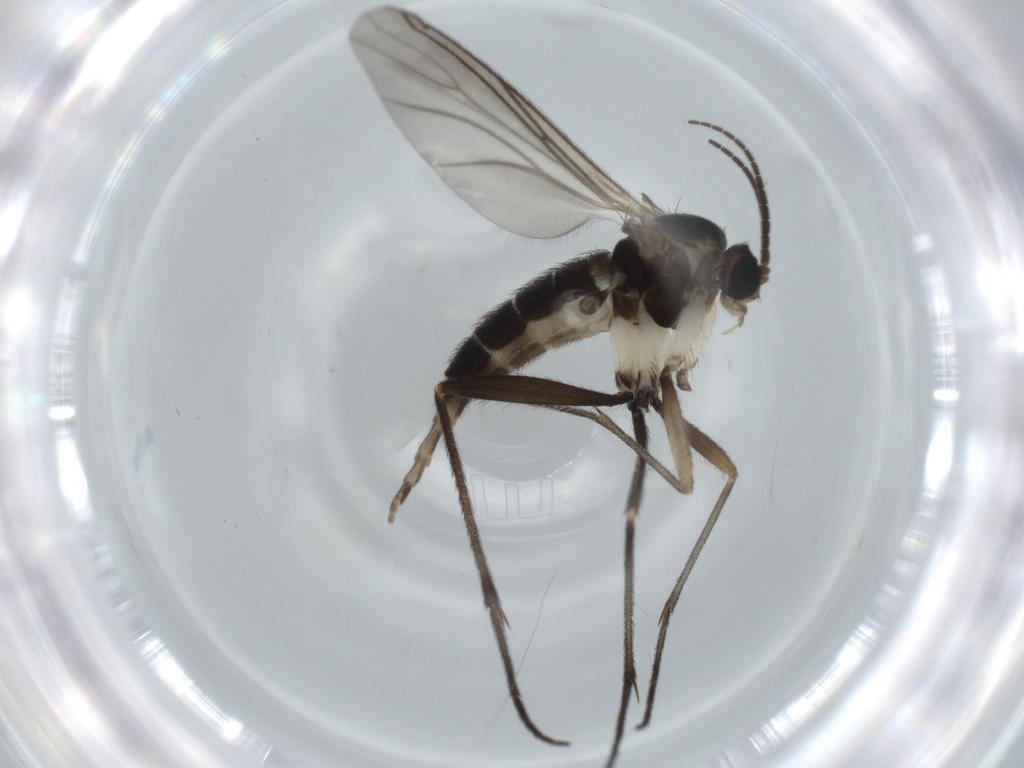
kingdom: Animalia
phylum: Arthropoda
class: Insecta
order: Diptera
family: Sciaridae
